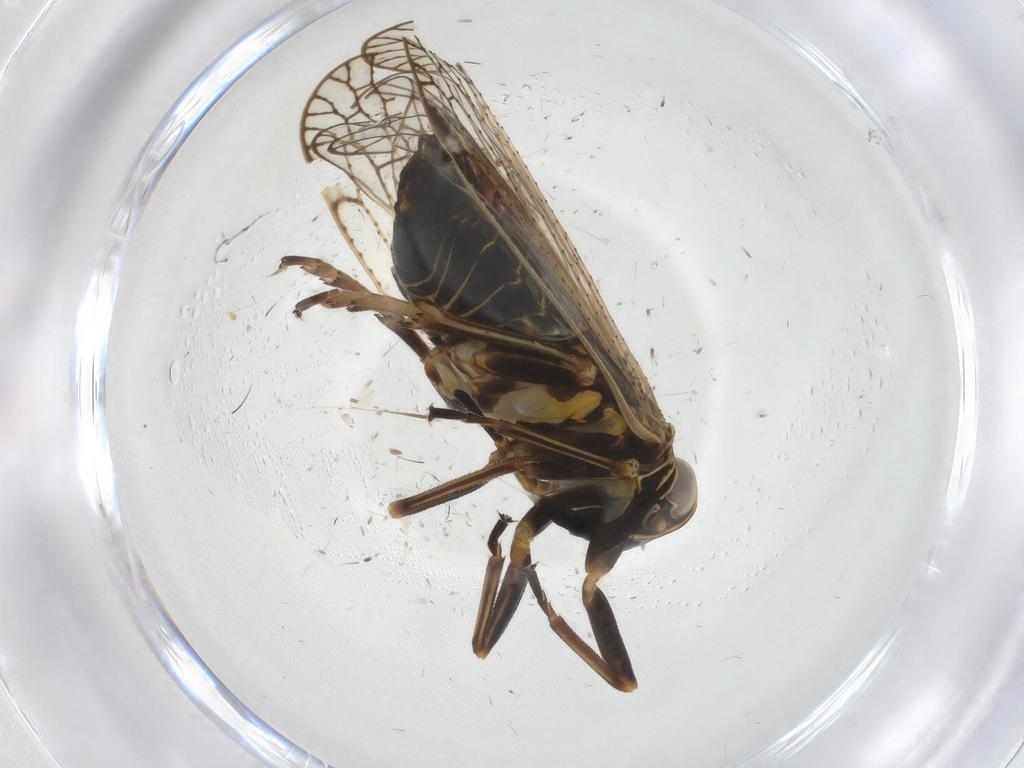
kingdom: Animalia
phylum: Arthropoda
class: Insecta
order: Hemiptera
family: Cixiidae
